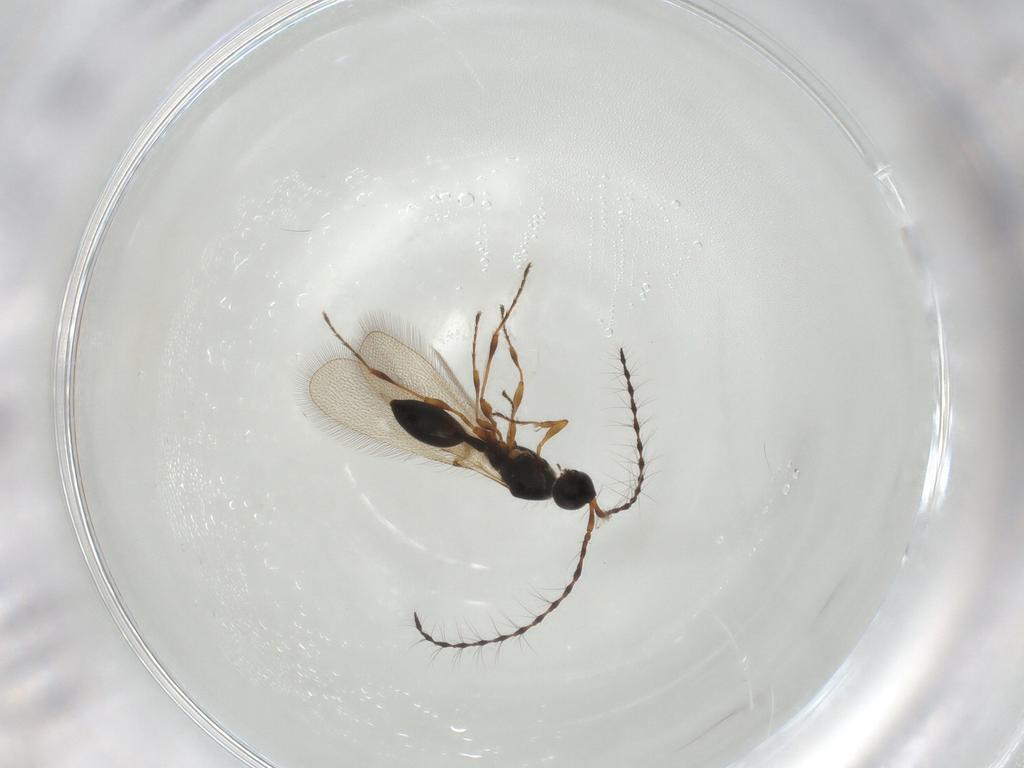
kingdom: Animalia
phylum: Arthropoda
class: Insecta
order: Hymenoptera
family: Diapriidae
